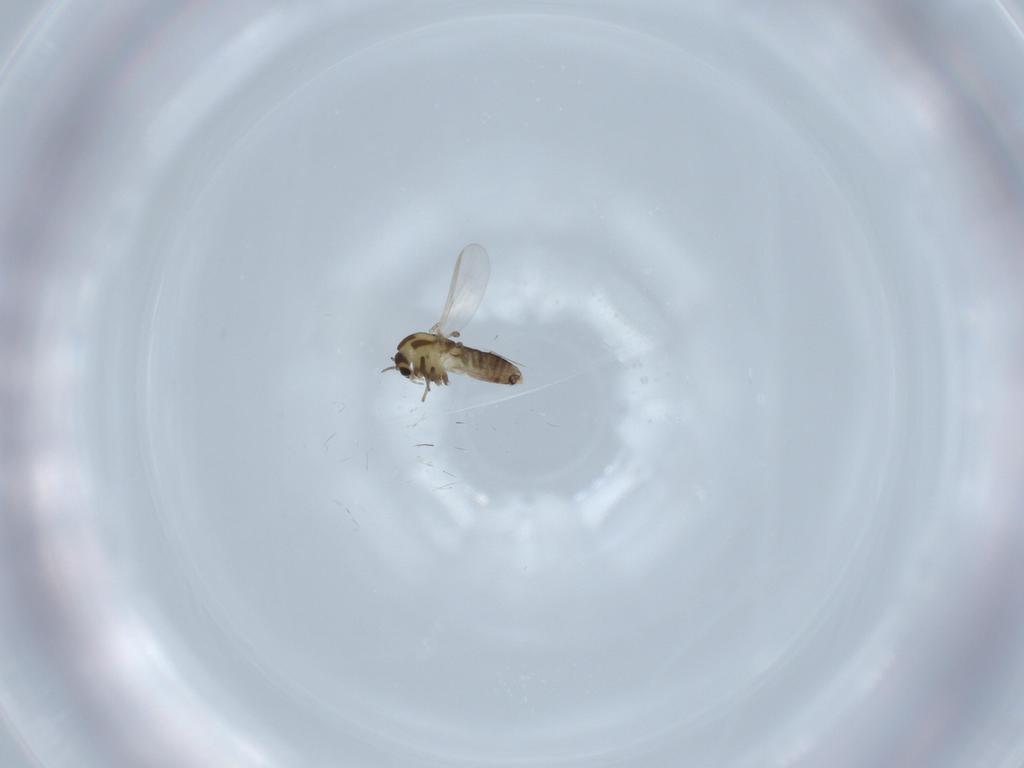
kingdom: Animalia
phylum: Arthropoda
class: Insecta
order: Diptera
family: Chironomidae
